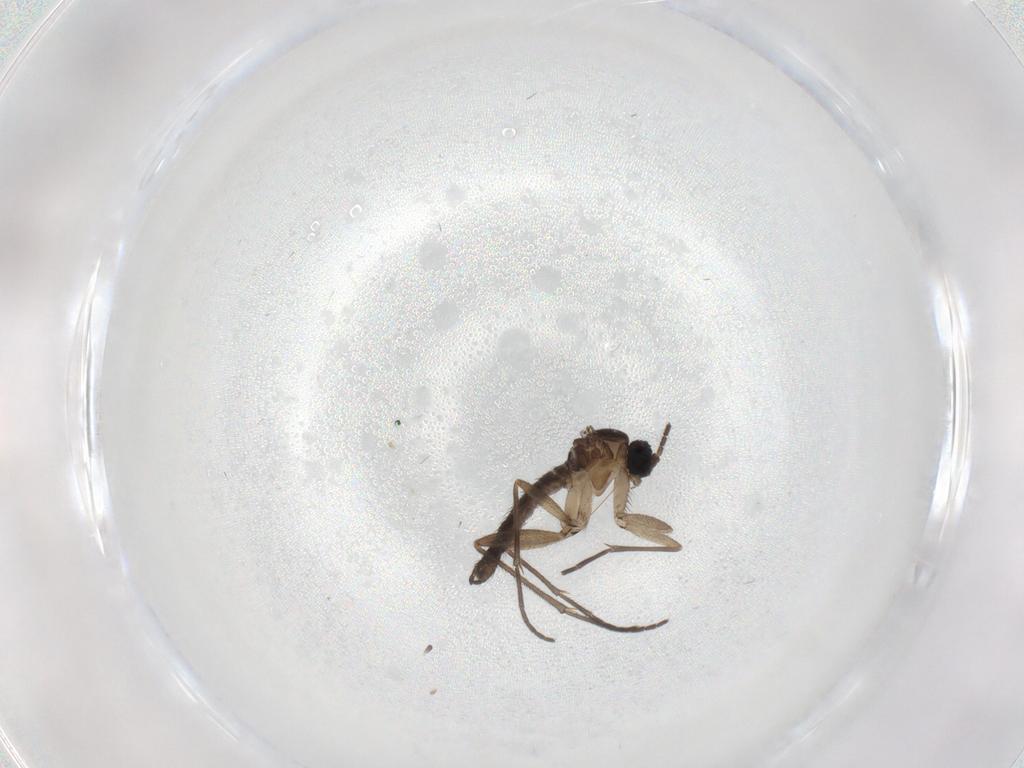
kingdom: Animalia
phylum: Arthropoda
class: Insecta
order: Diptera
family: Sciaridae
